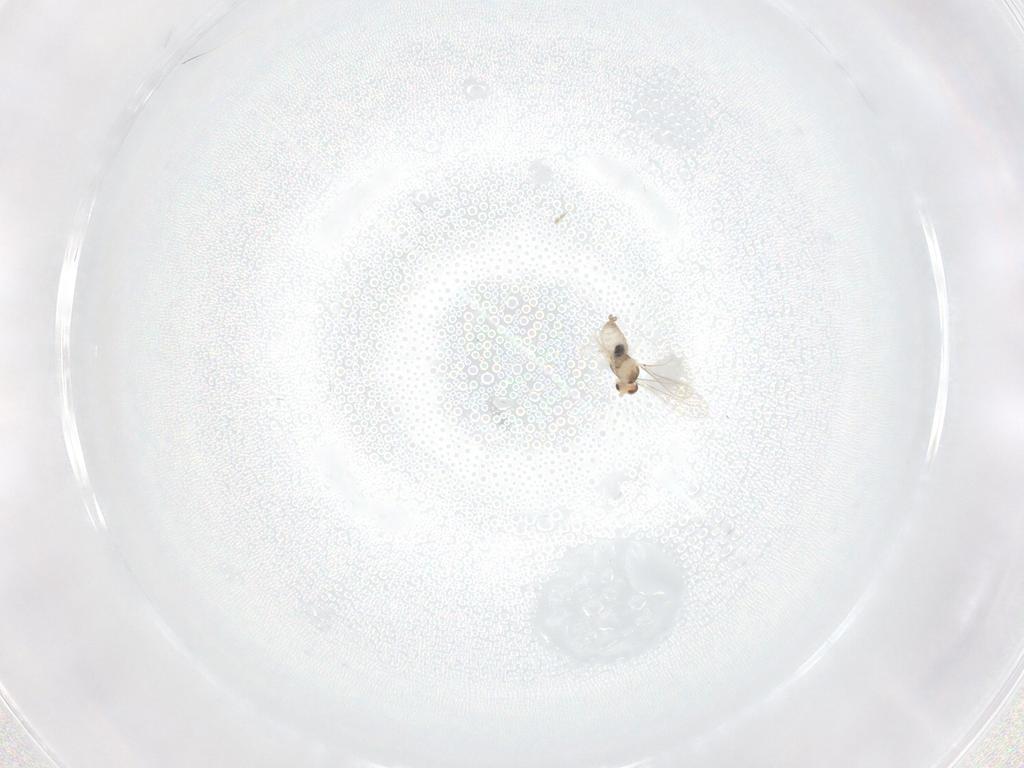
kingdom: Animalia
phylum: Arthropoda
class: Insecta
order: Diptera
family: Cecidomyiidae
